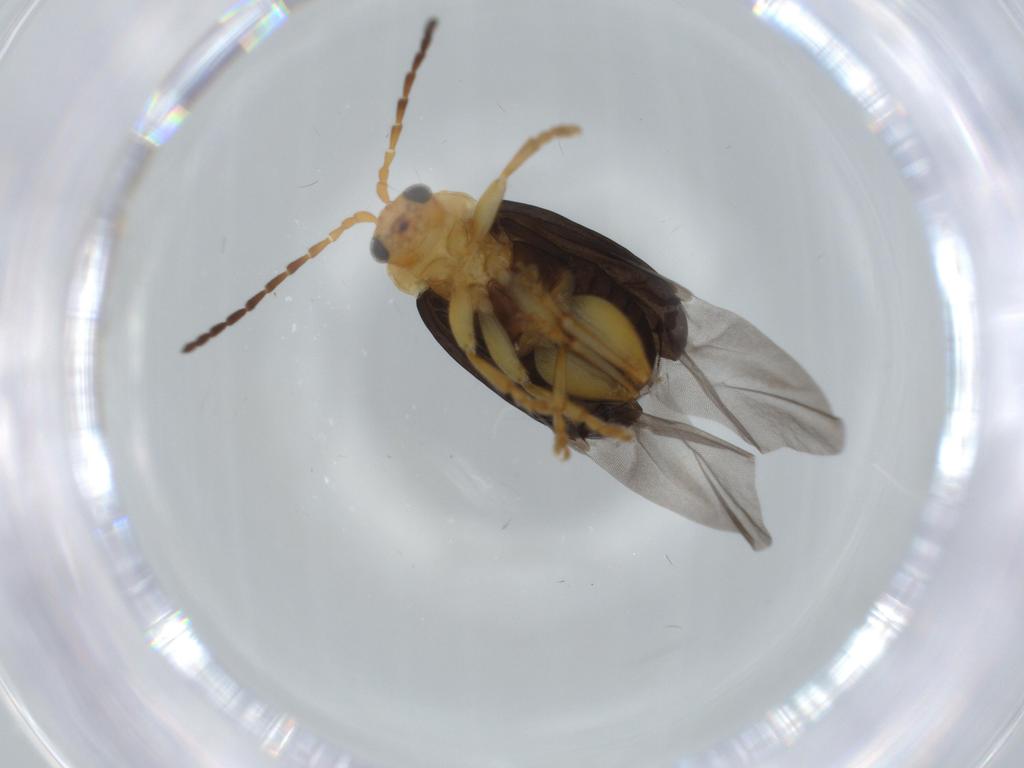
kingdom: Animalia
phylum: Arthropoda
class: Insecta
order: Coleoptera
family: Chrysomelidae
